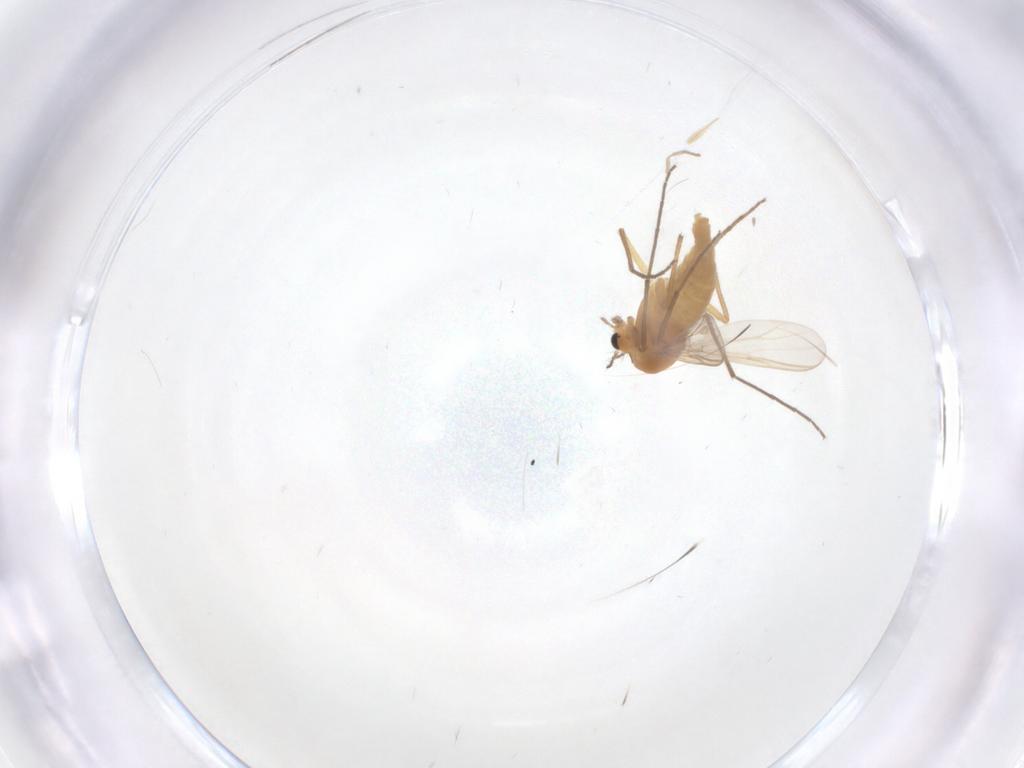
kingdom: Animalia
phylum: Arthropoda
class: Insecta
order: Diptera
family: Chironomidae
